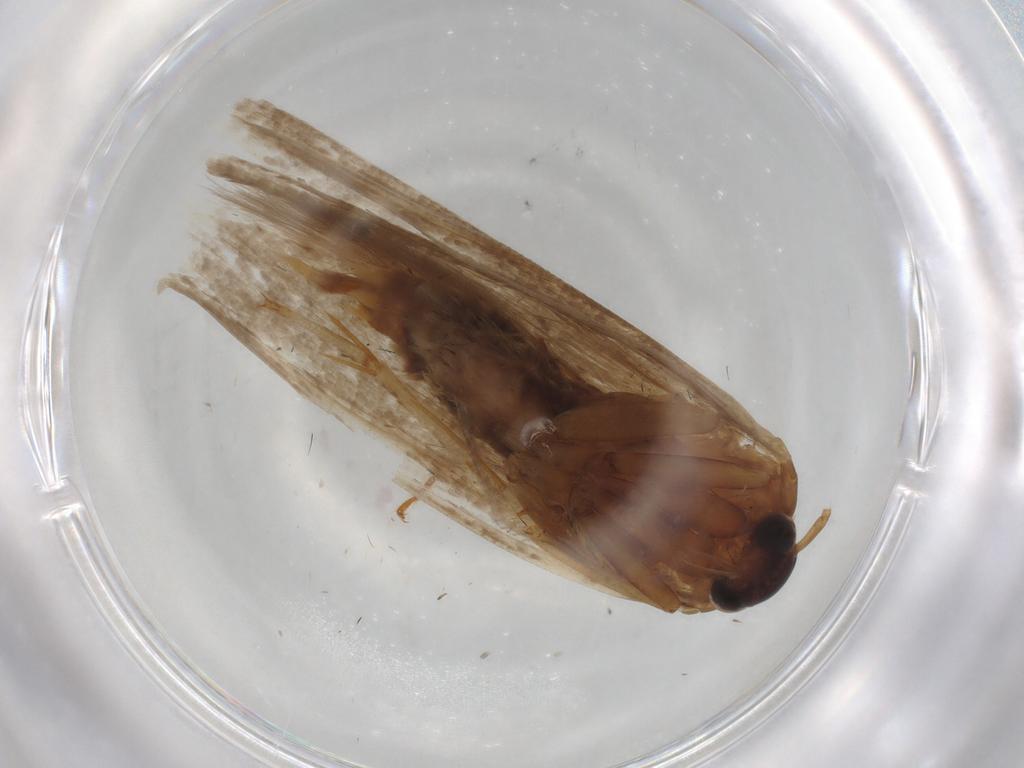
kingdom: Animalia
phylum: Arthropoda
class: Insecta
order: Lepidoptera
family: Blastobasidae
